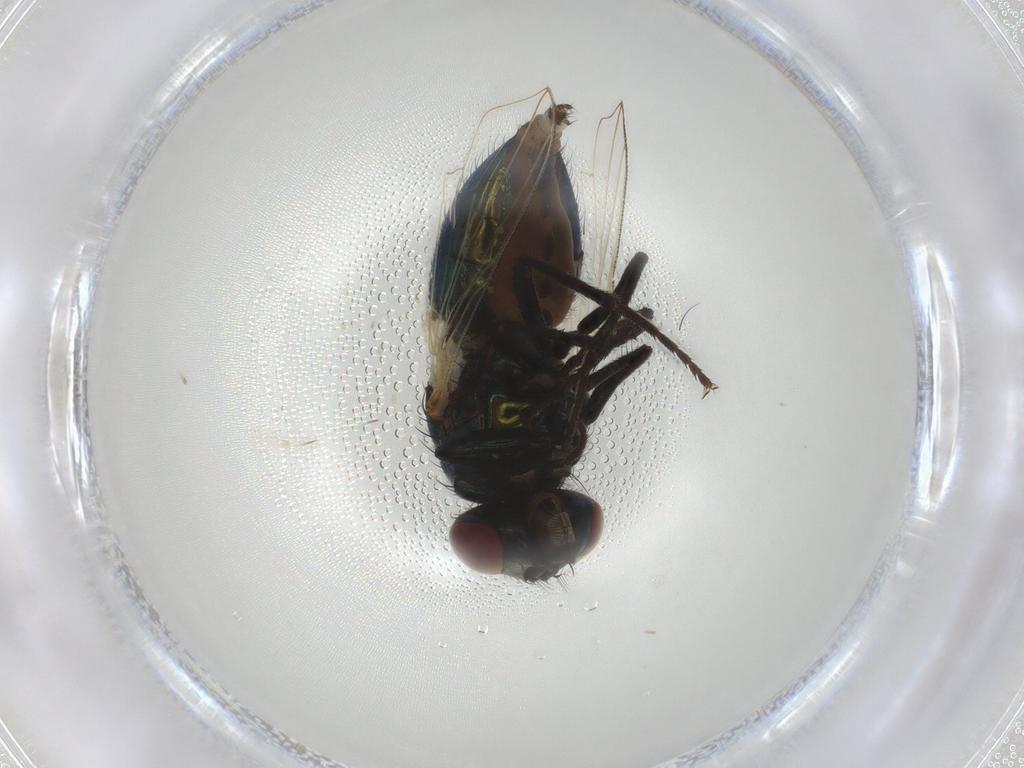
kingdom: Animalia
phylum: Arthropoda
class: Insecta
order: Diptera
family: Muscidae
